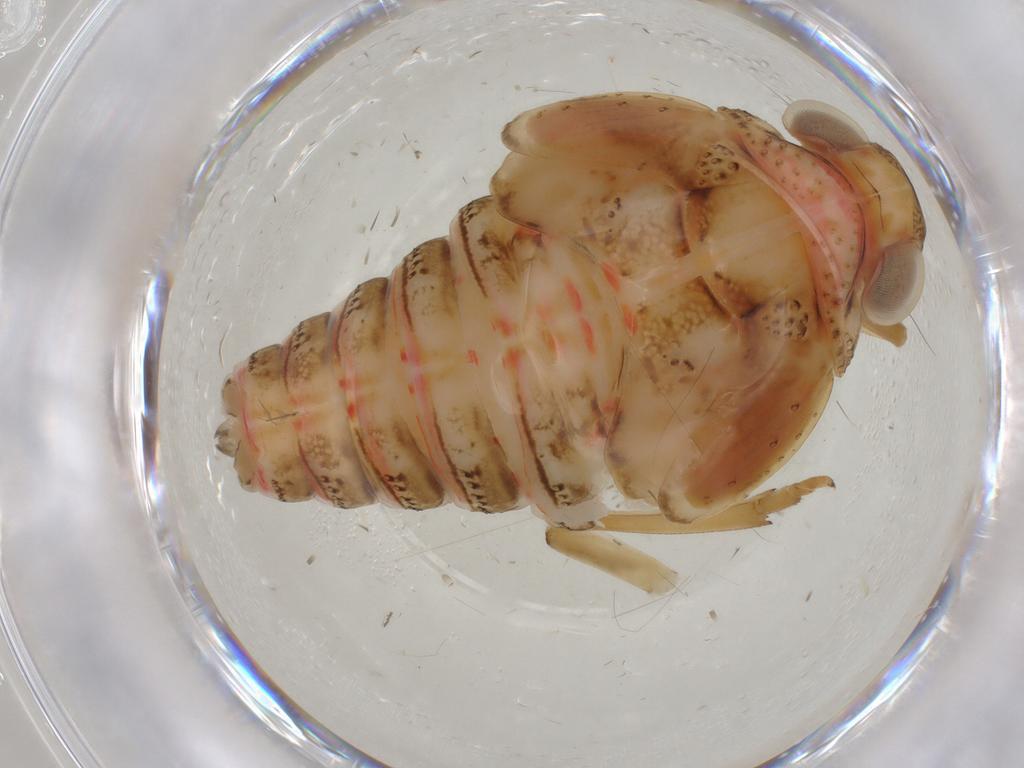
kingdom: Animalia
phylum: Arthropoda
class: Insecta
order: Hemiptera
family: Issidae
